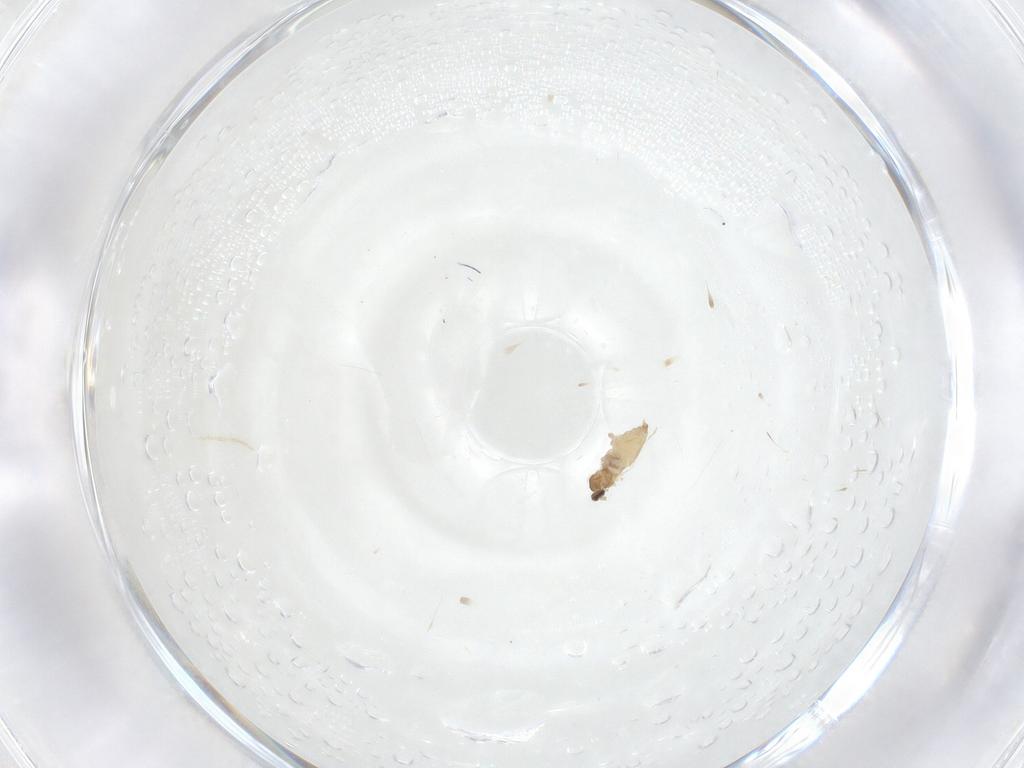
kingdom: Animalia
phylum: Arthropoda
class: Insecta
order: Diptera
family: Cecidomyiidae
